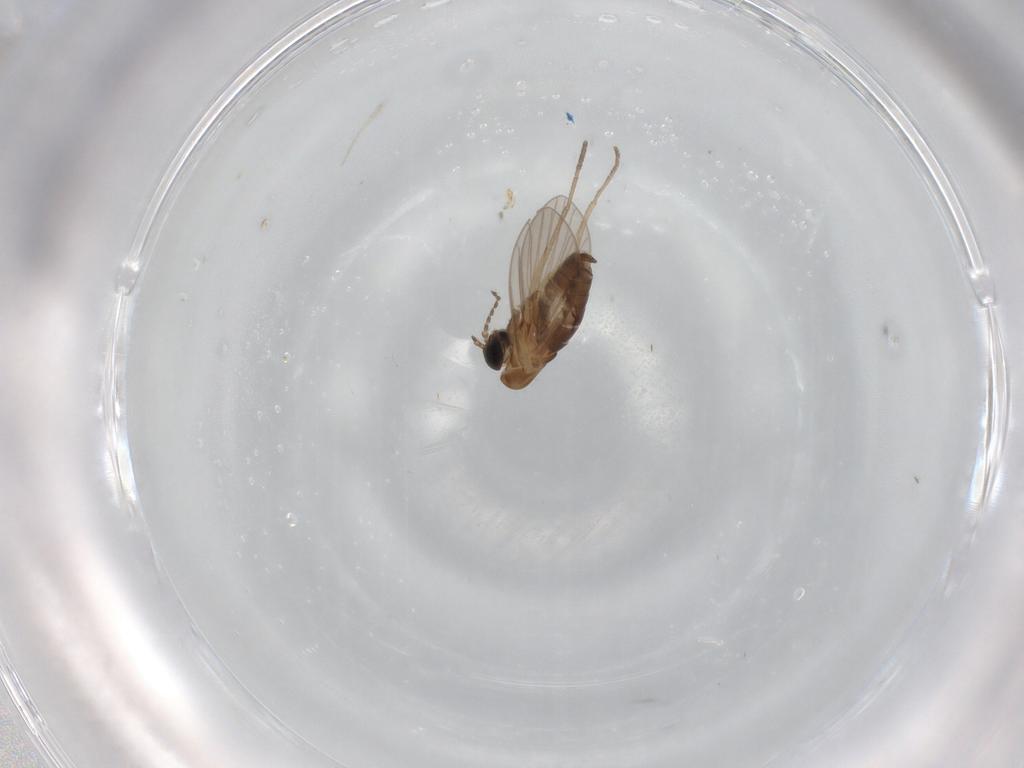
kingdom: Animalia
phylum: Arthropoda
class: Insecta
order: Diptera
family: Psychodidae
